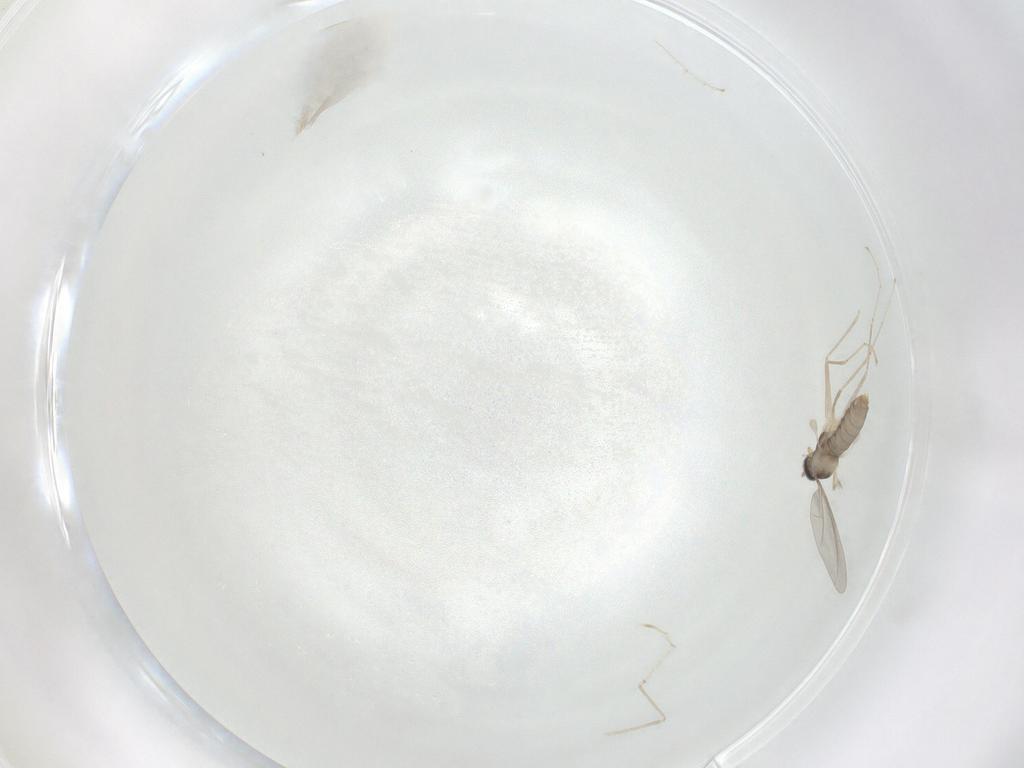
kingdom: Animalia
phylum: Arthropoda
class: Insecta
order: Diptera
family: Cecidomyiidae
